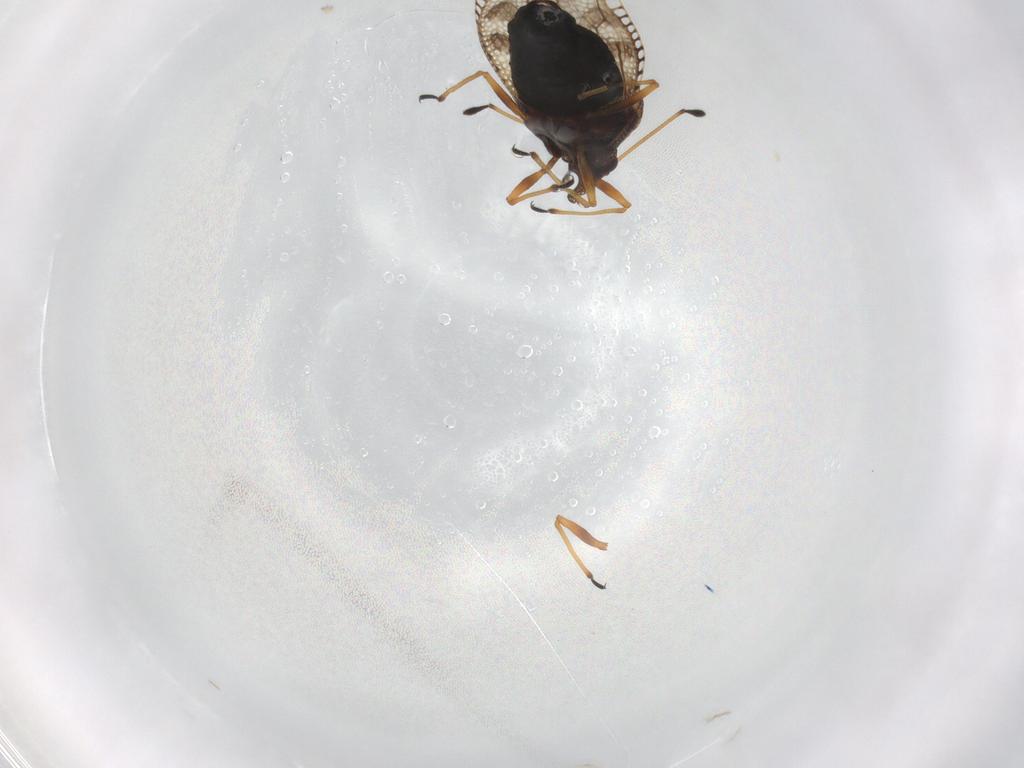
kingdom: Animalia
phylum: Arthropoda
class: Insecta
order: Hemiptera
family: Tingidae
